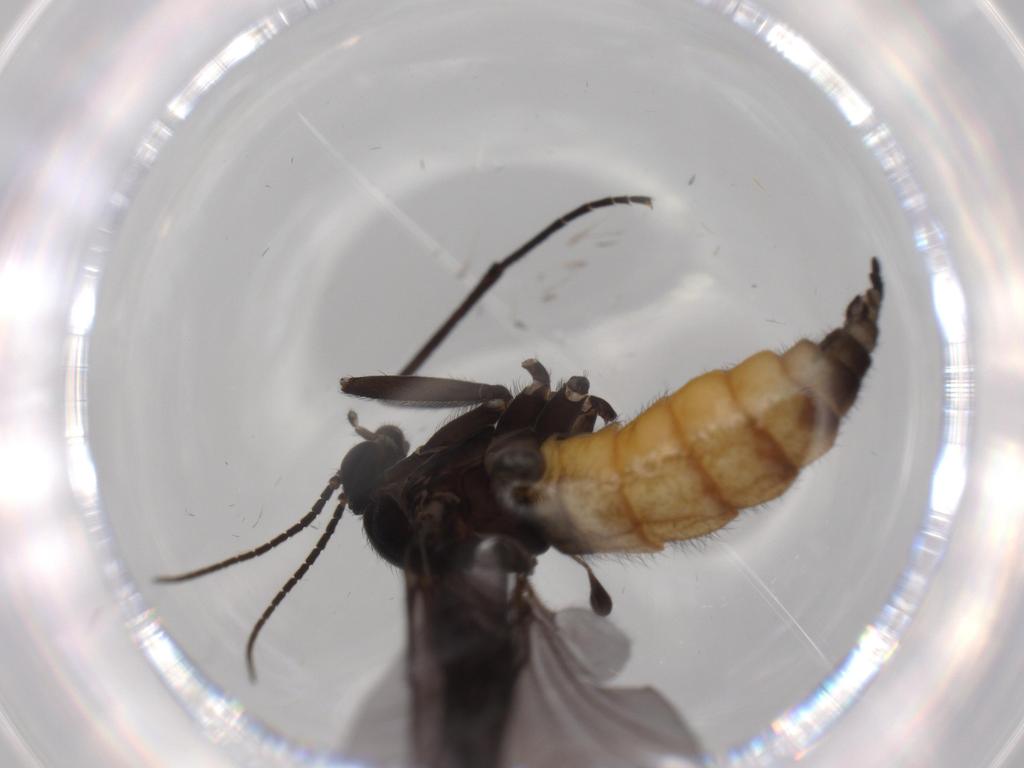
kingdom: Animalia
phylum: Arthropoda
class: Insecta
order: Diptera
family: Sciaridae
